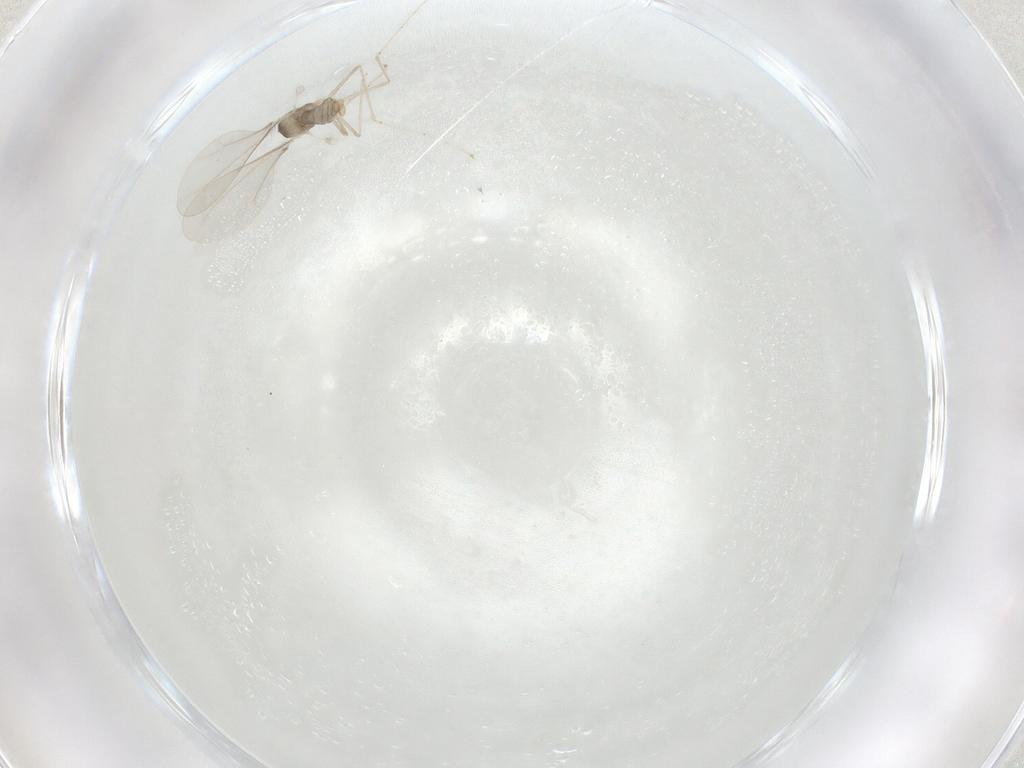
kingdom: Animalia
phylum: Arthropoda
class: Insecta
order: Diptera
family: Cecidomyiidae
